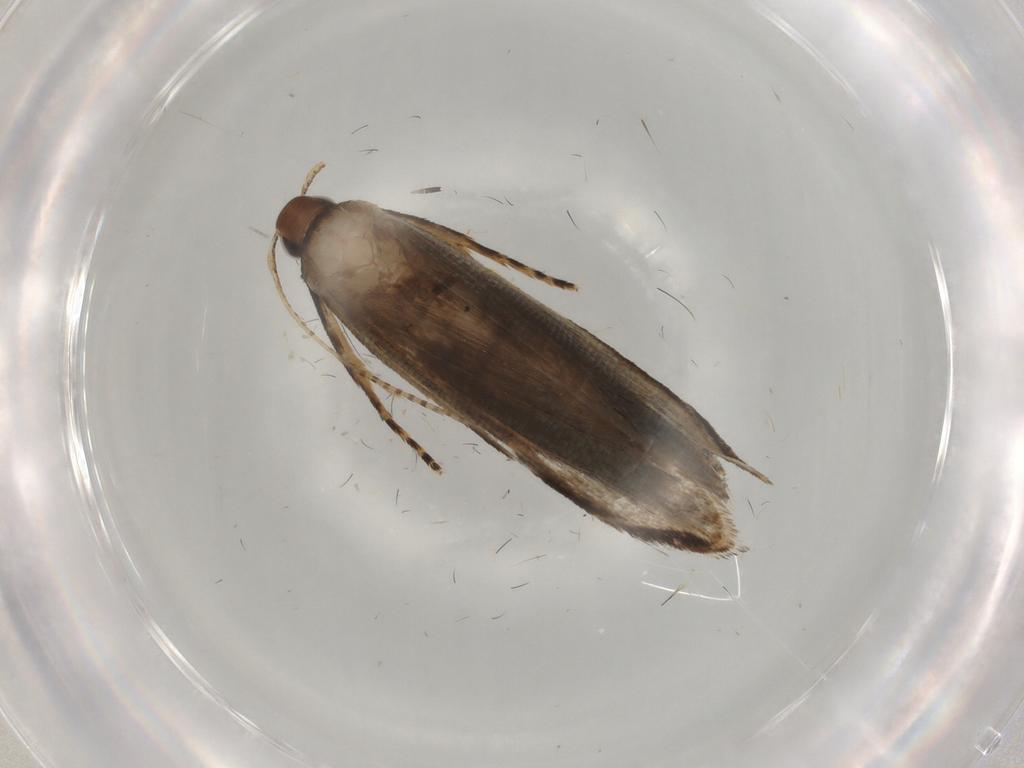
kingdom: Animalia
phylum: Arthropoda
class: Insecta
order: Lepidoptera
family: Gelechiidae
